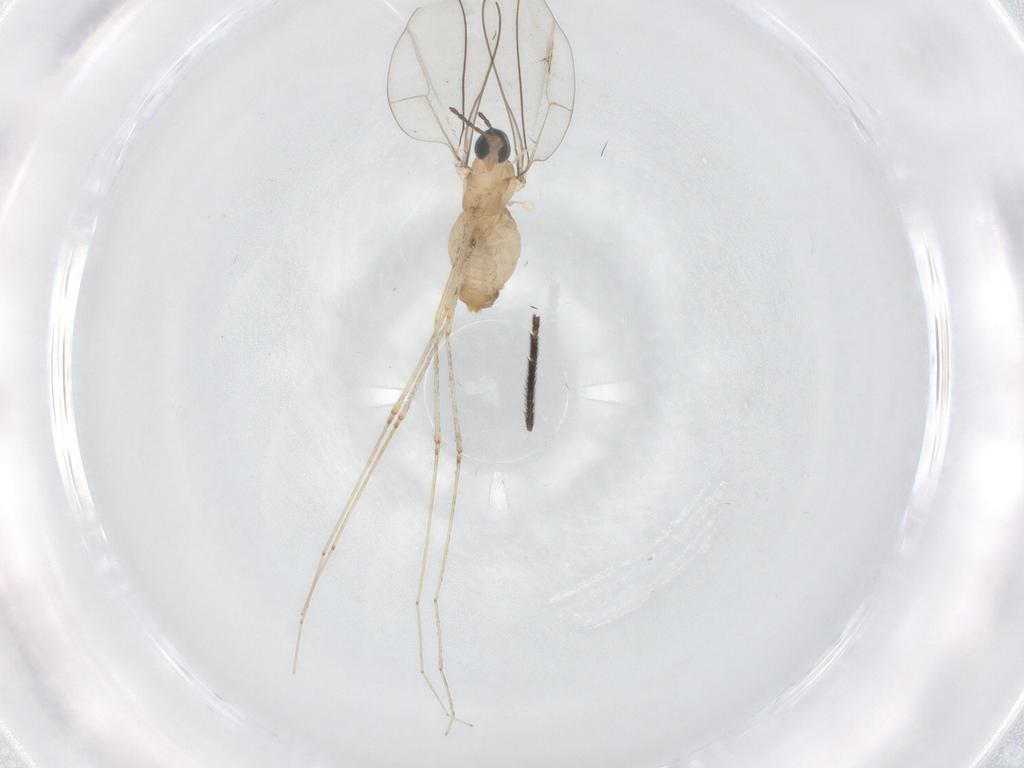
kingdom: Animalia
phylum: Arthropoda
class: Insecta
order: Diptera
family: Sciaridae
